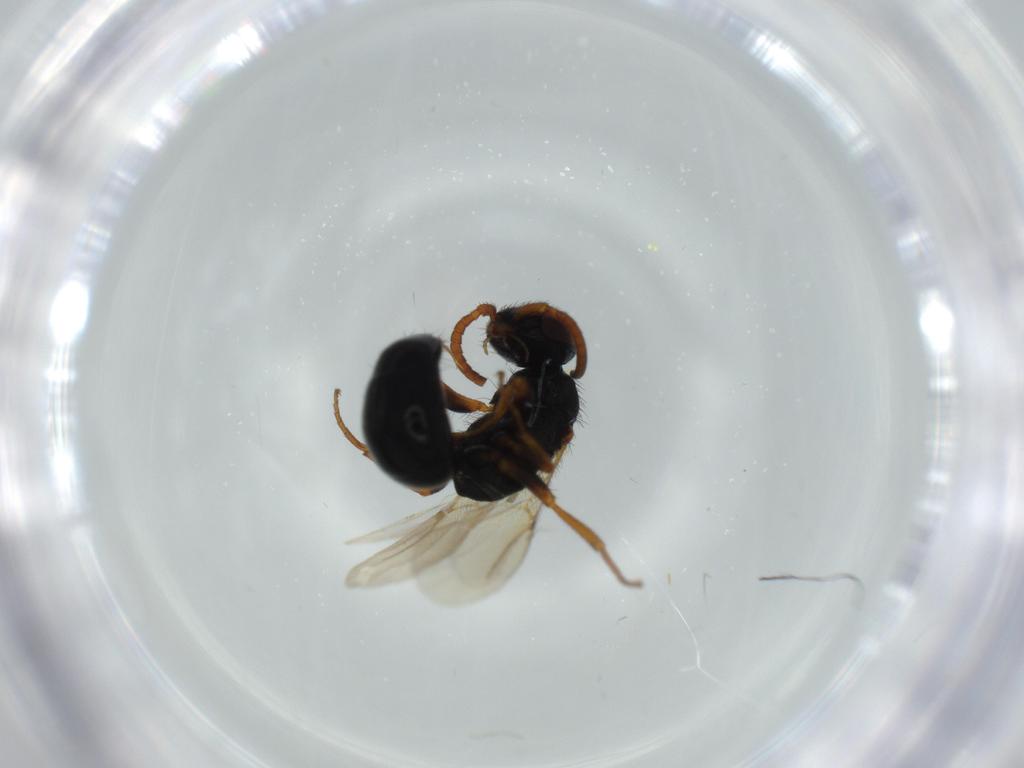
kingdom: Animalia
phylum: Arthropoda
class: Insecta
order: Hymenoptera
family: Bethylidae
